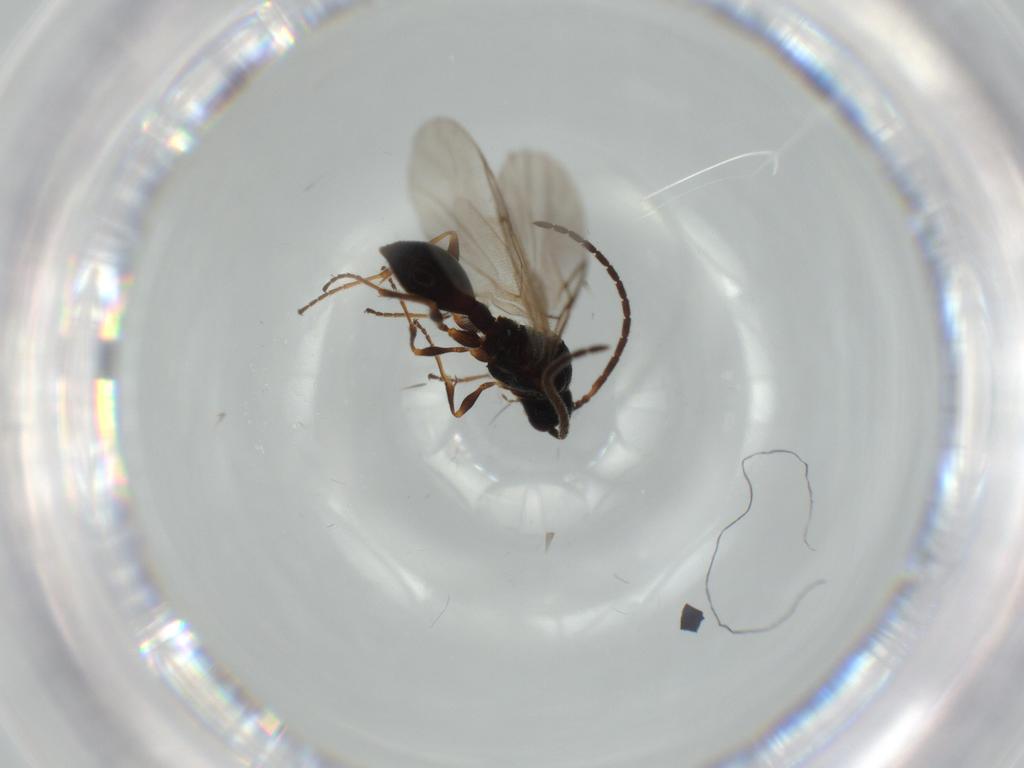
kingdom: Animalia
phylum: Arthropoda
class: Insecta
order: Hymenoptera
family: Diapriidae
